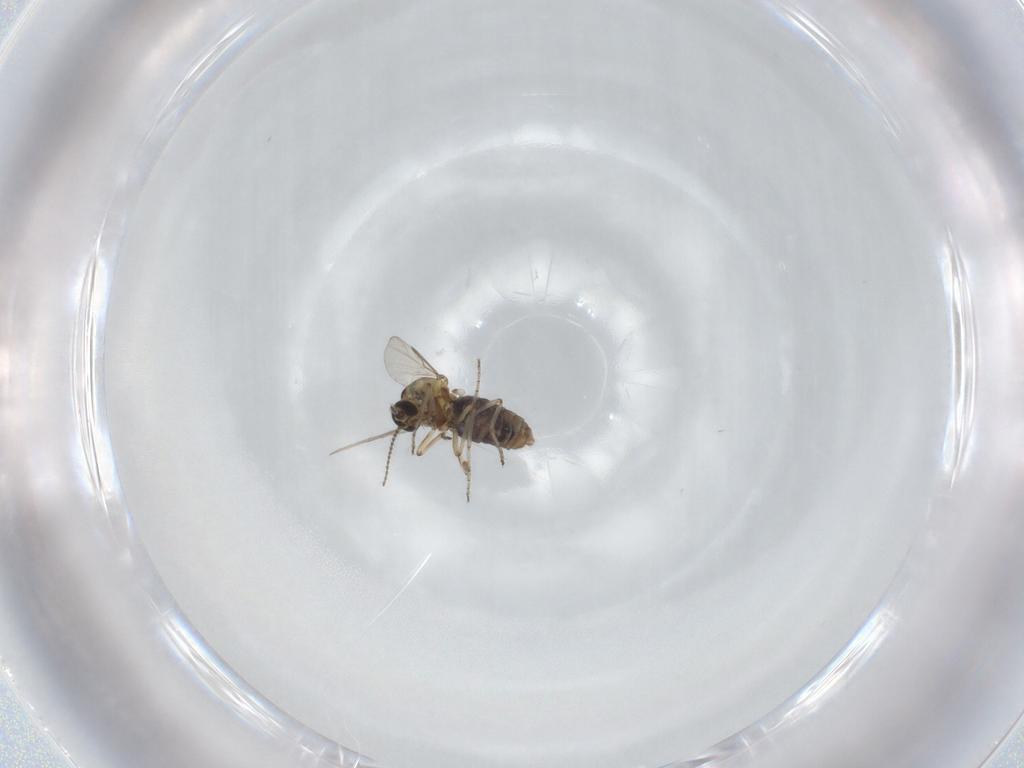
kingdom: Animalia
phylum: Arthropoda
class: Insecta
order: Diptera
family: Ceratopogonidae
